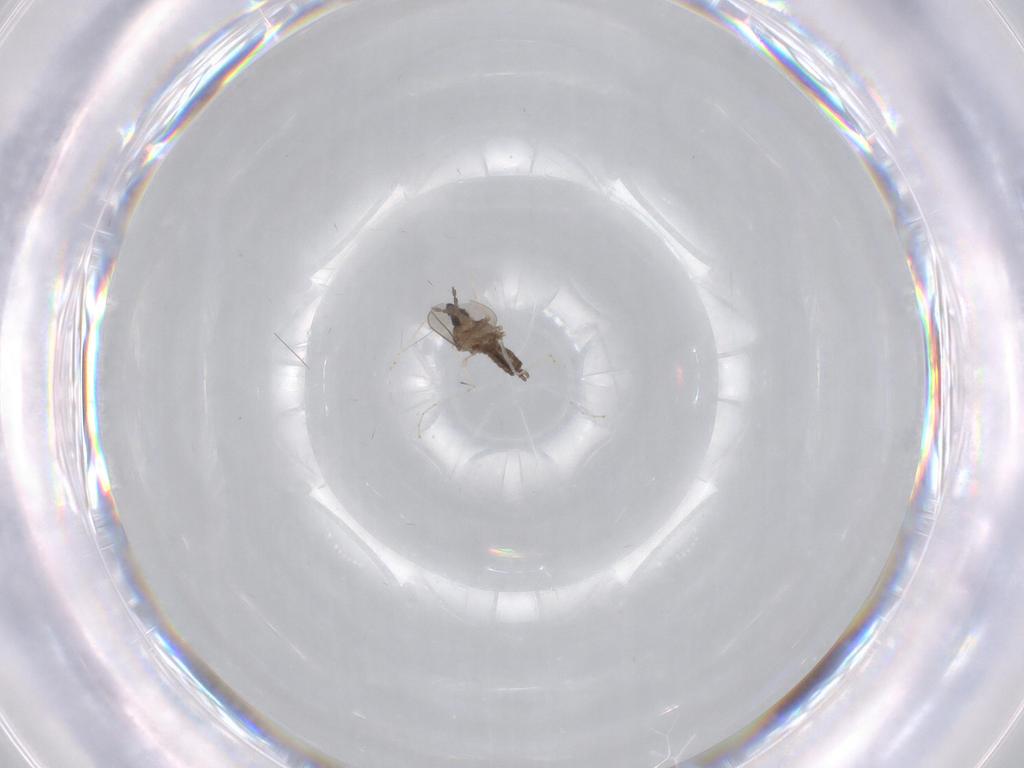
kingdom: Animalia
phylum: Arthropoda
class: Insecta
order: Diptera
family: Cecidomyiidae
